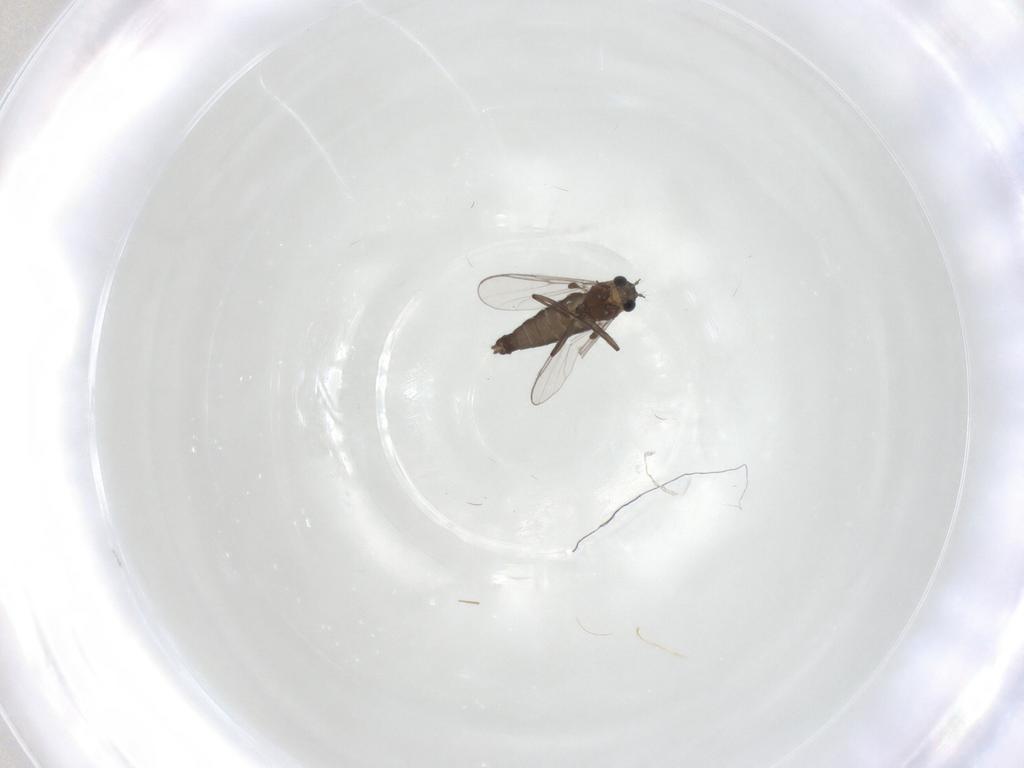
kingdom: Animalia
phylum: Arthropoda
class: Insecta
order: Diptera
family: Chironomidae
